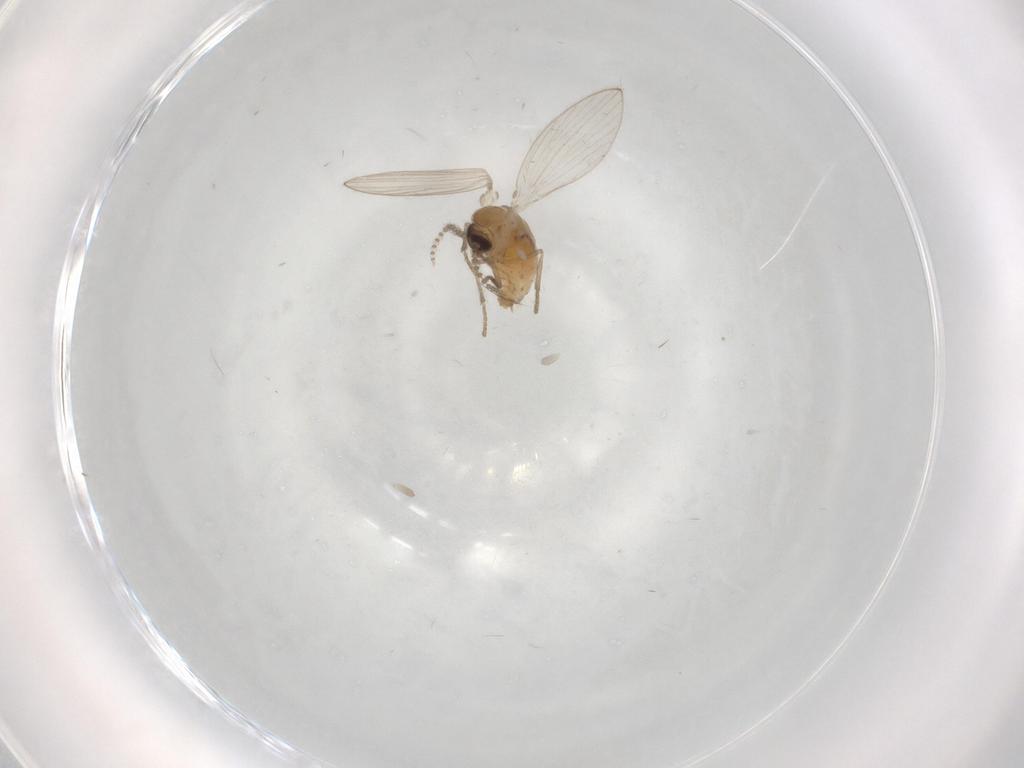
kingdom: Animalia
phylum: Arthropoda
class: Insecta
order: Diptera
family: Psychodidae
